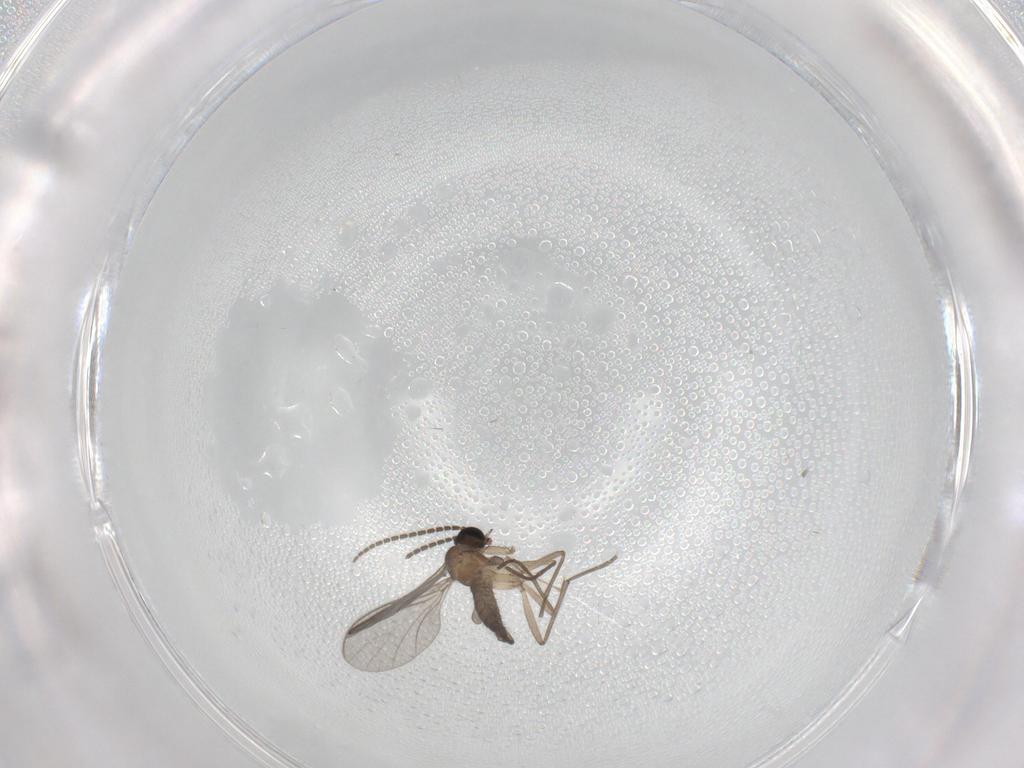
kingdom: Animalia
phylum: Arthropoda
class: Insecta
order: Diptera
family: Sciaridae
